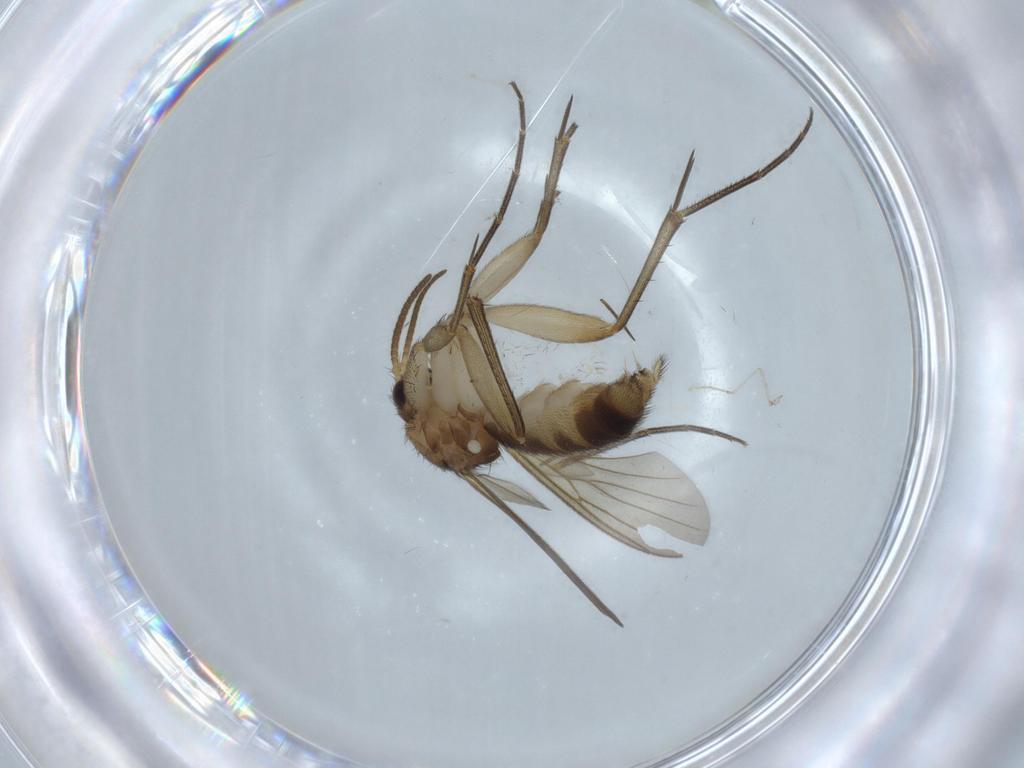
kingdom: Animalia
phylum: Arthropoda
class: Insecta
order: Diptera
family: Mycetophilidae
